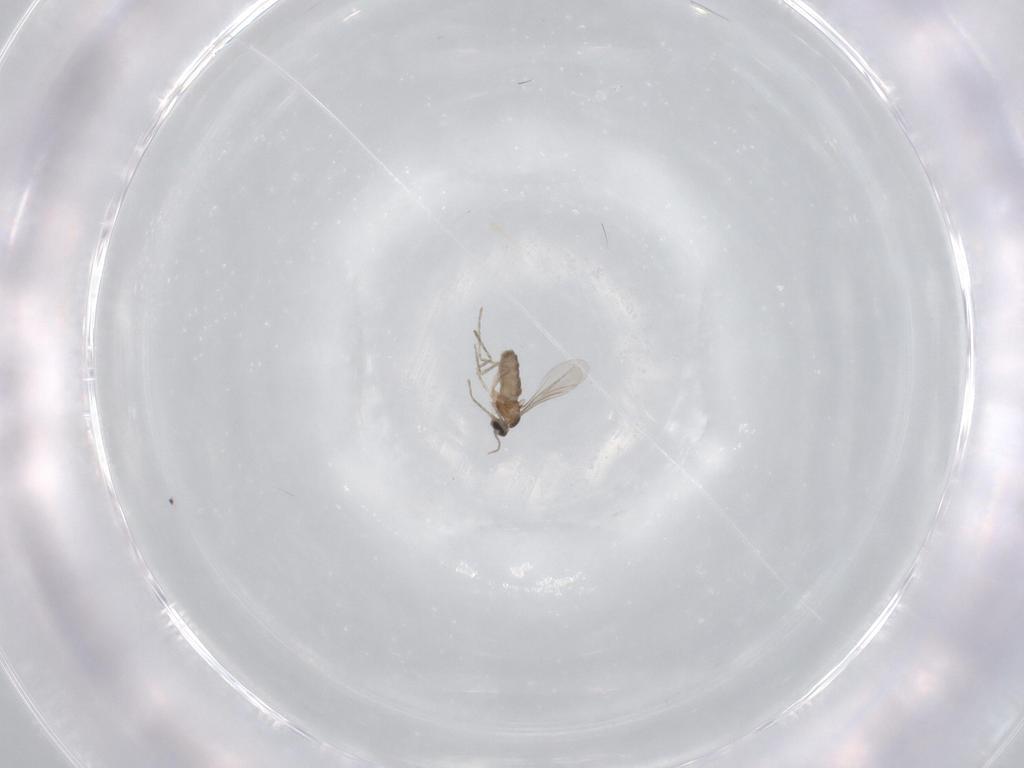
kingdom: Animalia
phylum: Arthropoda
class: Insecta
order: Diptera
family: Cecidomyiidae
